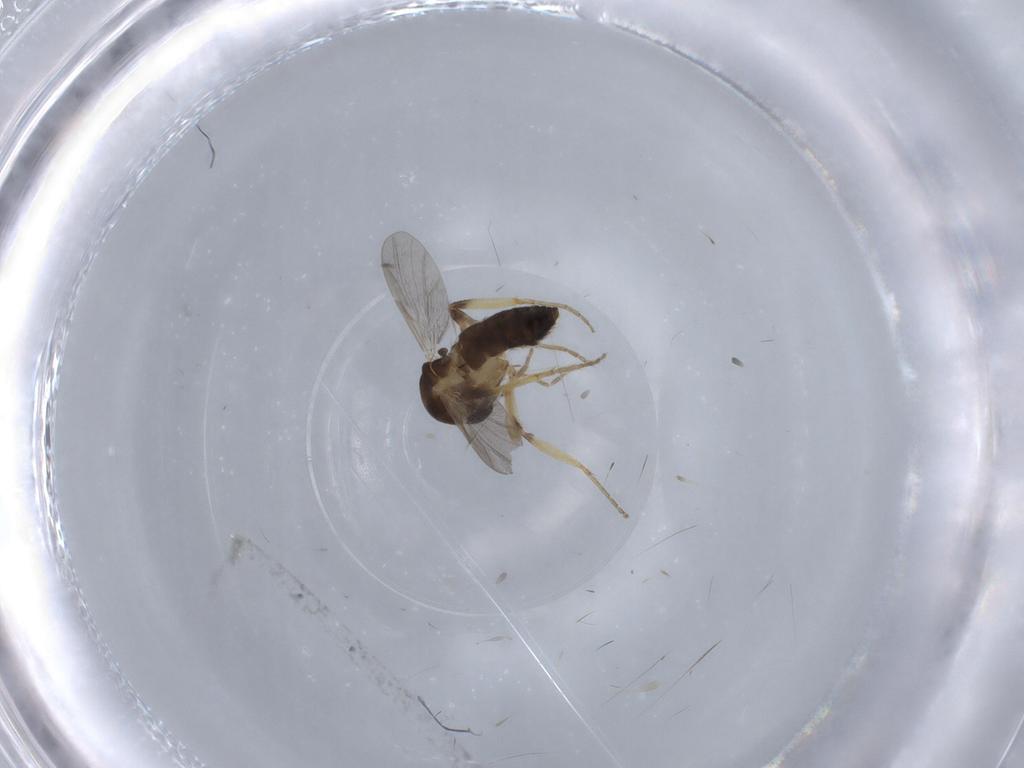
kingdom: Animalia
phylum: Arthropoda
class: Insecta
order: Diptera
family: Ceratopogonidae
